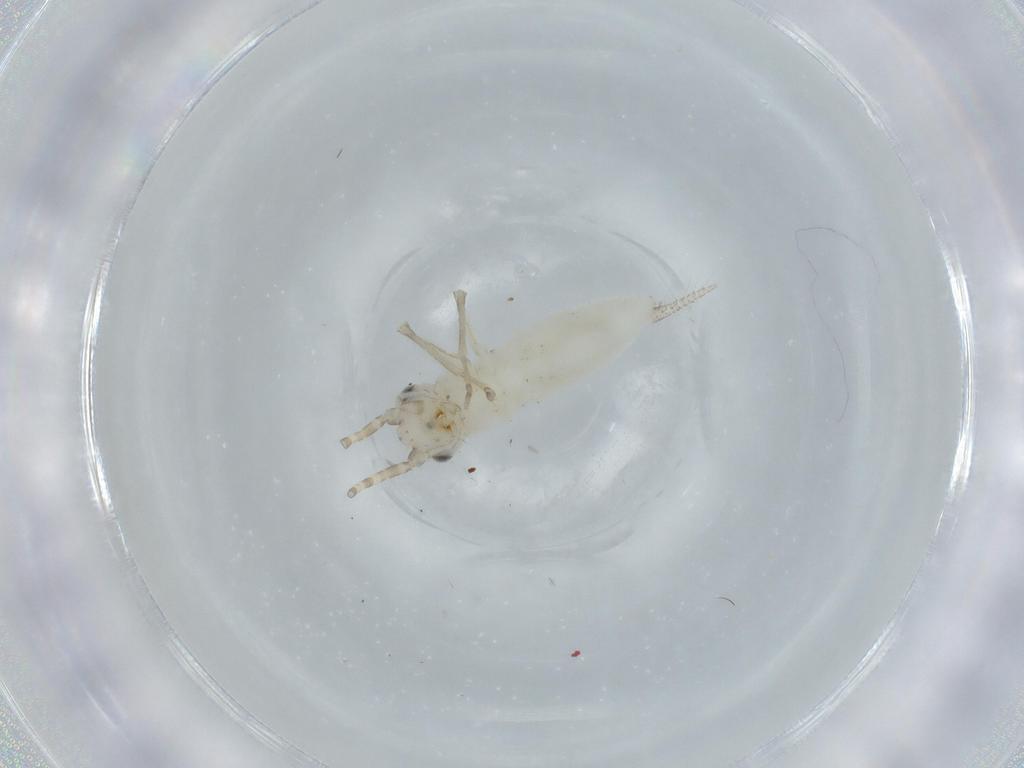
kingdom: Animalia
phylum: Arthropoda
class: Insecta
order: Orthoptera
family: Trigonidiidae
